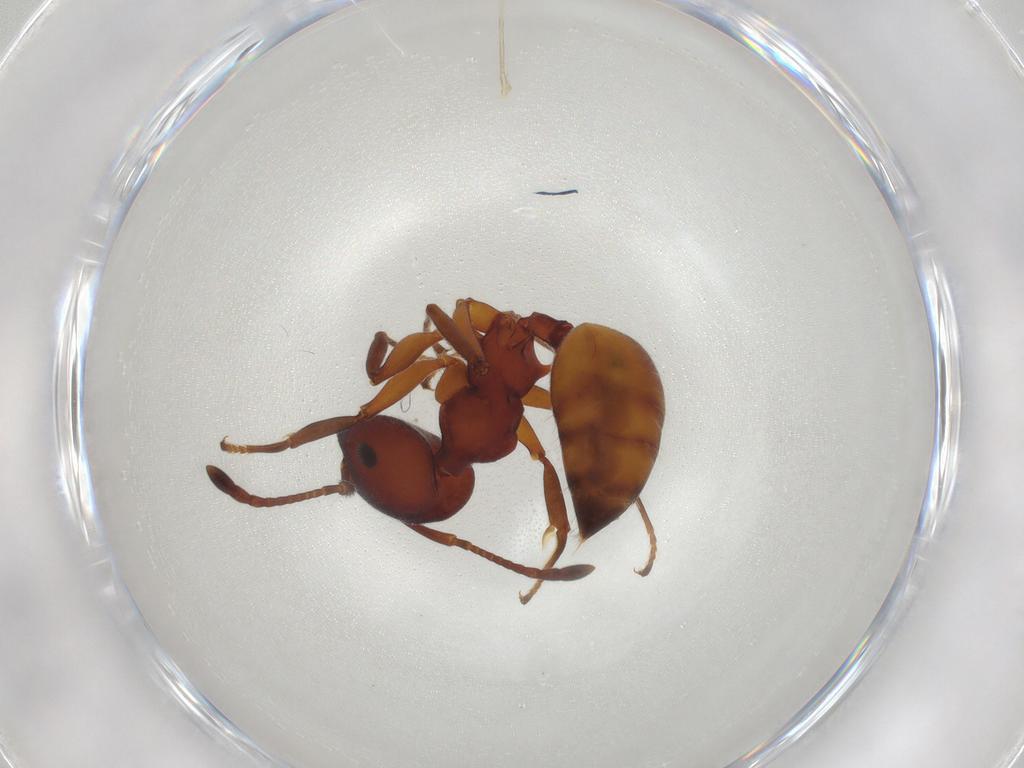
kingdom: Animalia
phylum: Arthropoda
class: Insecta
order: Hymenoptera
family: Formicidae
